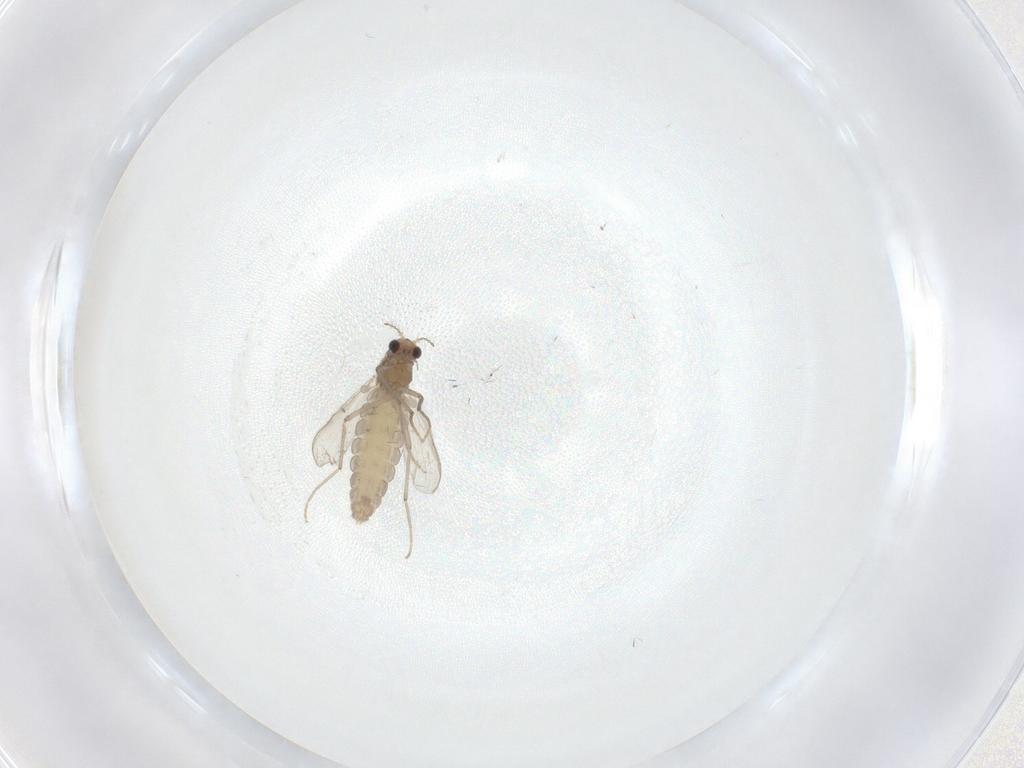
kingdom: Animalia
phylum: Arthropoda
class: Insecta
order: Diptera
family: Chironomidae
